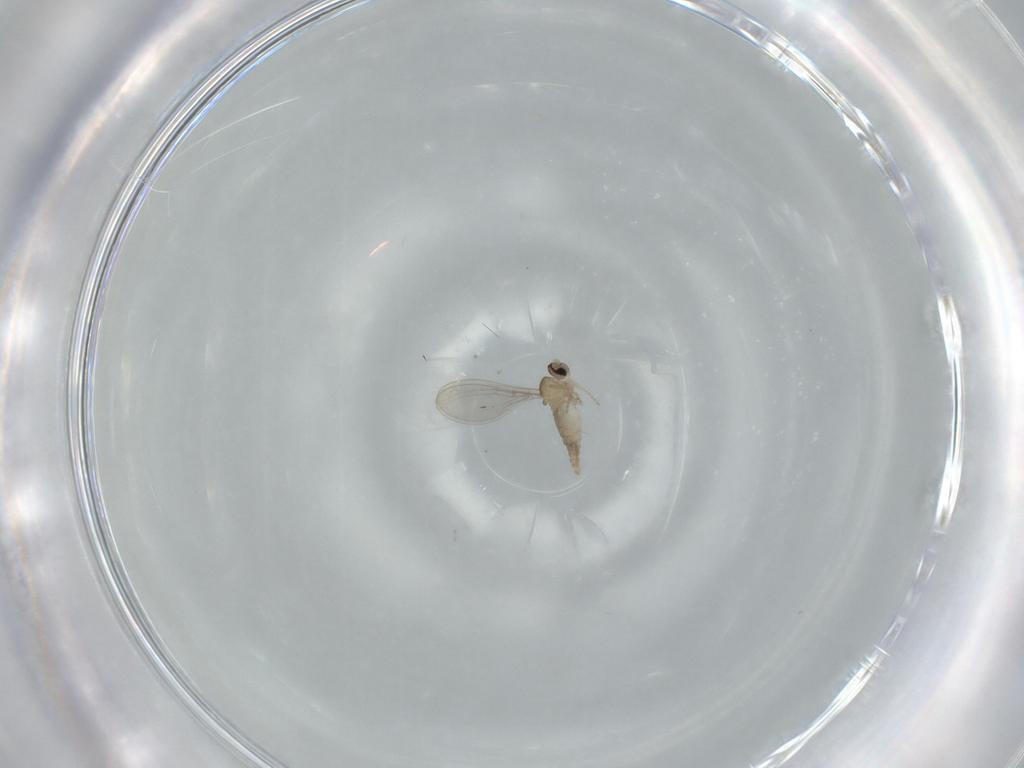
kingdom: Animalia
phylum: Arthropoda
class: Insecta
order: Diptera
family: Cecidomyiidae
